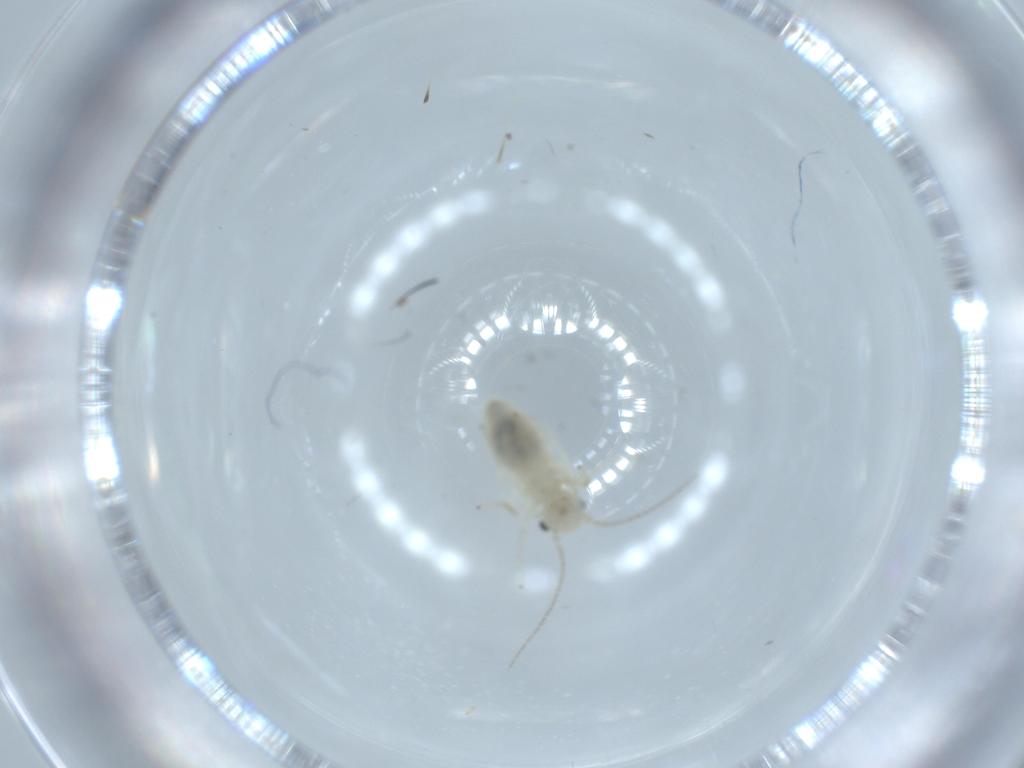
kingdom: Animalia
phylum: Arthropoda
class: Insecta
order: Psocodea
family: Caeciliusidae
